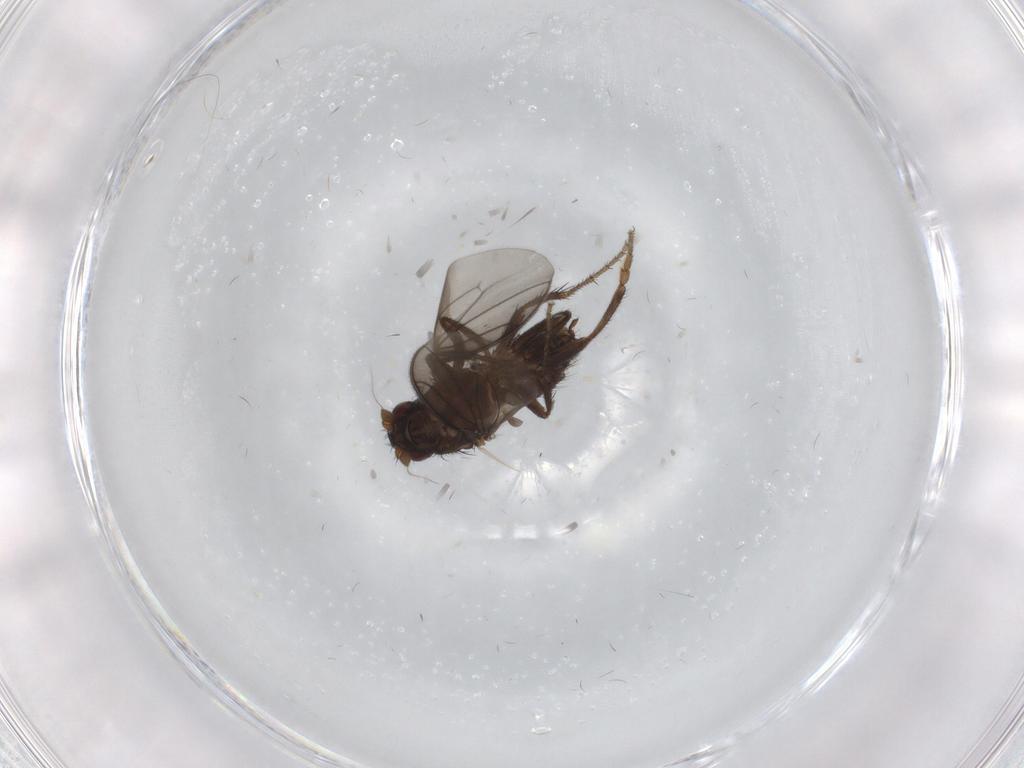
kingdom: Animalia
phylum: Arthropoda
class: Insecta
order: Diptera
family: Sphaeroceridae
